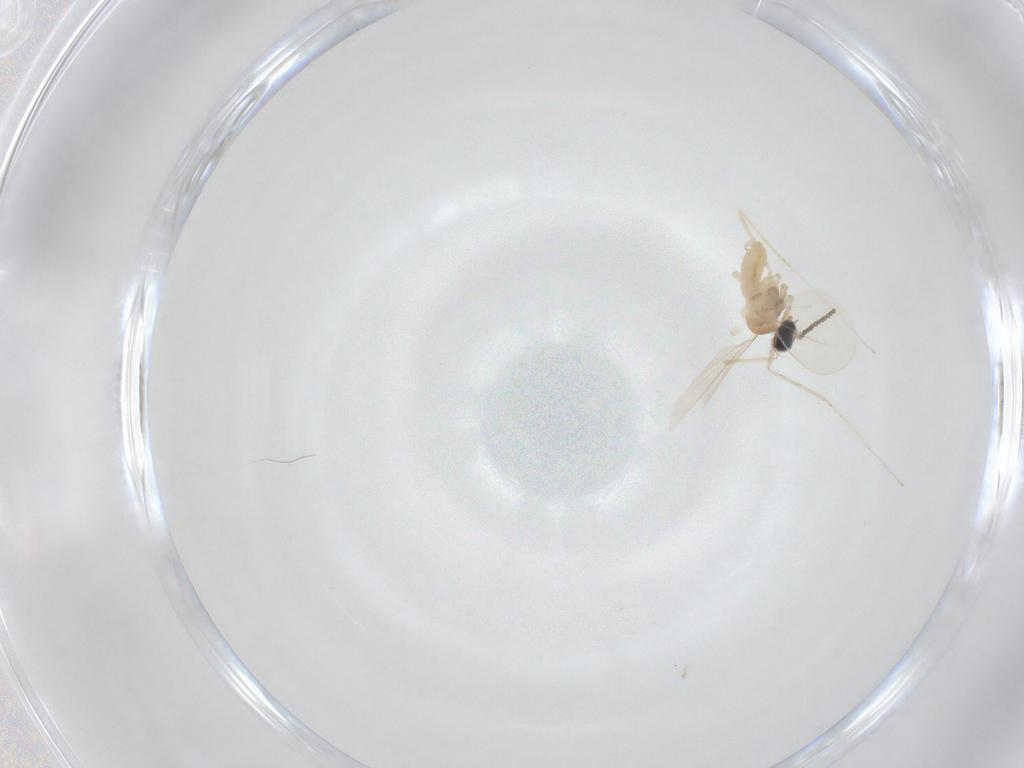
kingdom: Animalia
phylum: Arthropoda
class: Insecta
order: Diptera
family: Cecidomyiidae
